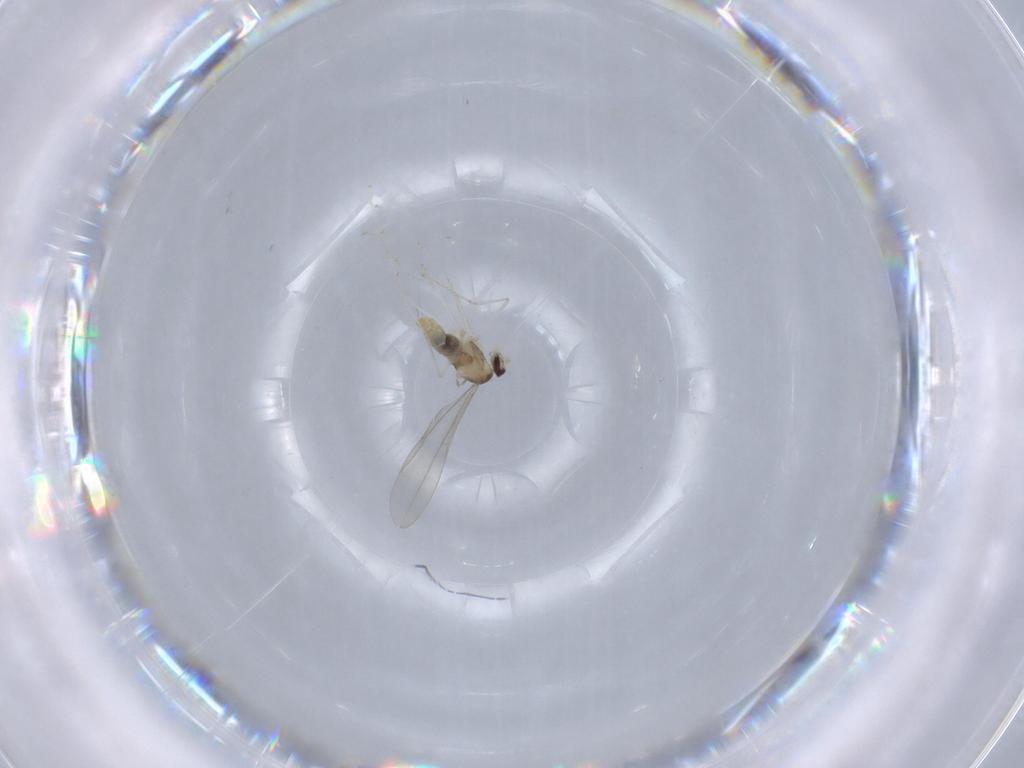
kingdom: Animalia
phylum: Arthropoda
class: Insecta
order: Diptera
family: Cecidomyiidae
